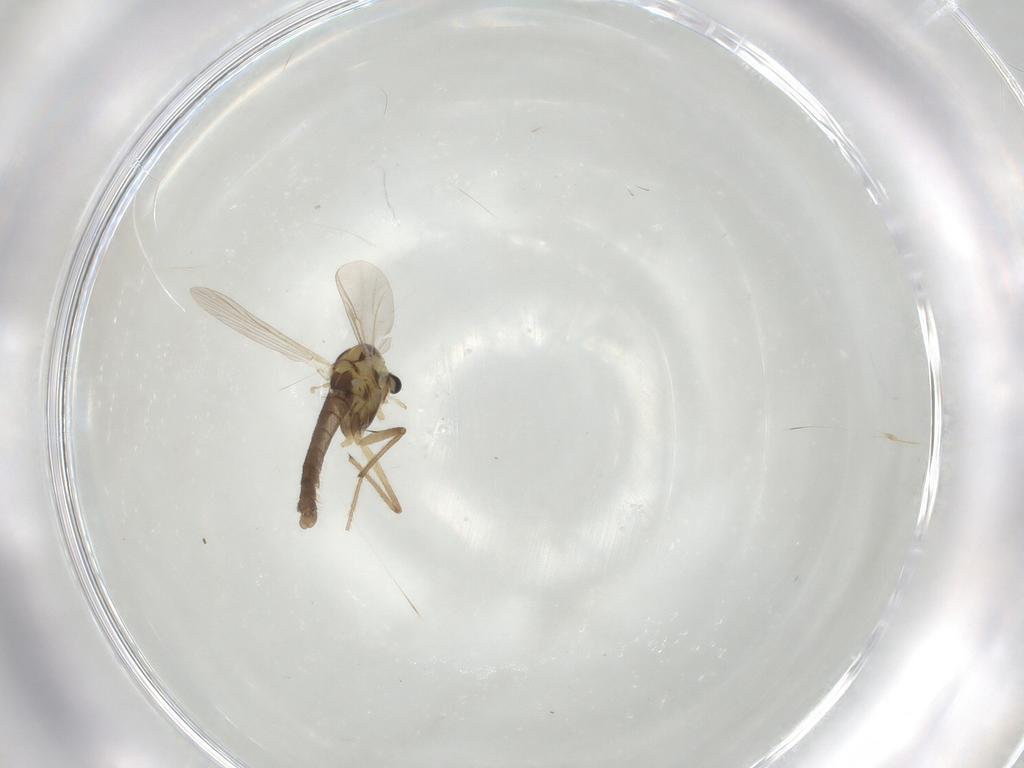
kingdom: Animalia
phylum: Arthropoda
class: Insecta
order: Diptera
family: Chironomidae
